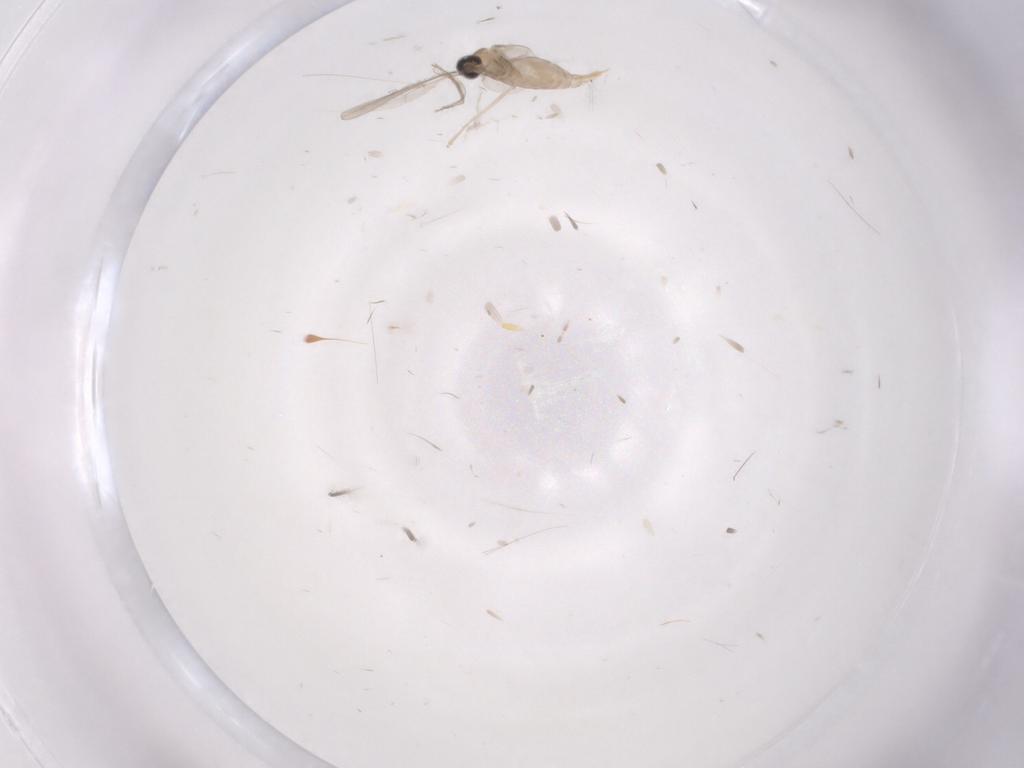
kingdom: Animalia
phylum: Arthropoda
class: Insecta
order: Diptera
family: Cecidomyiidae
